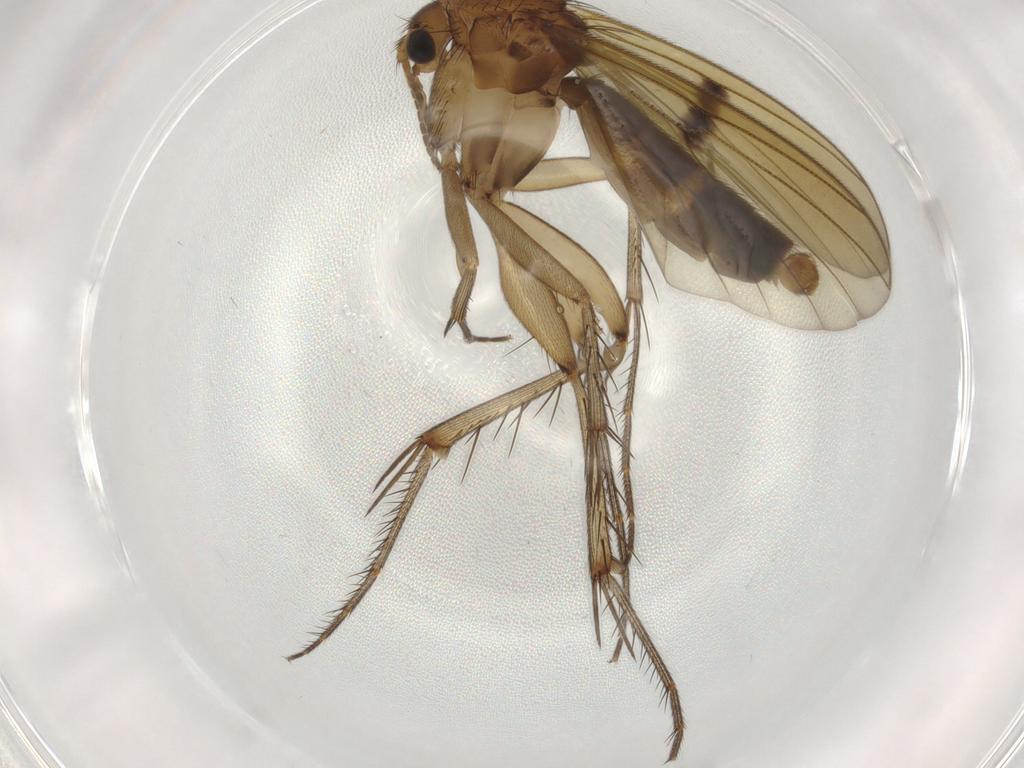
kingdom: Animalia
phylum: Arthropoda
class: Insecta
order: Diptera
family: Mycetophilidae
